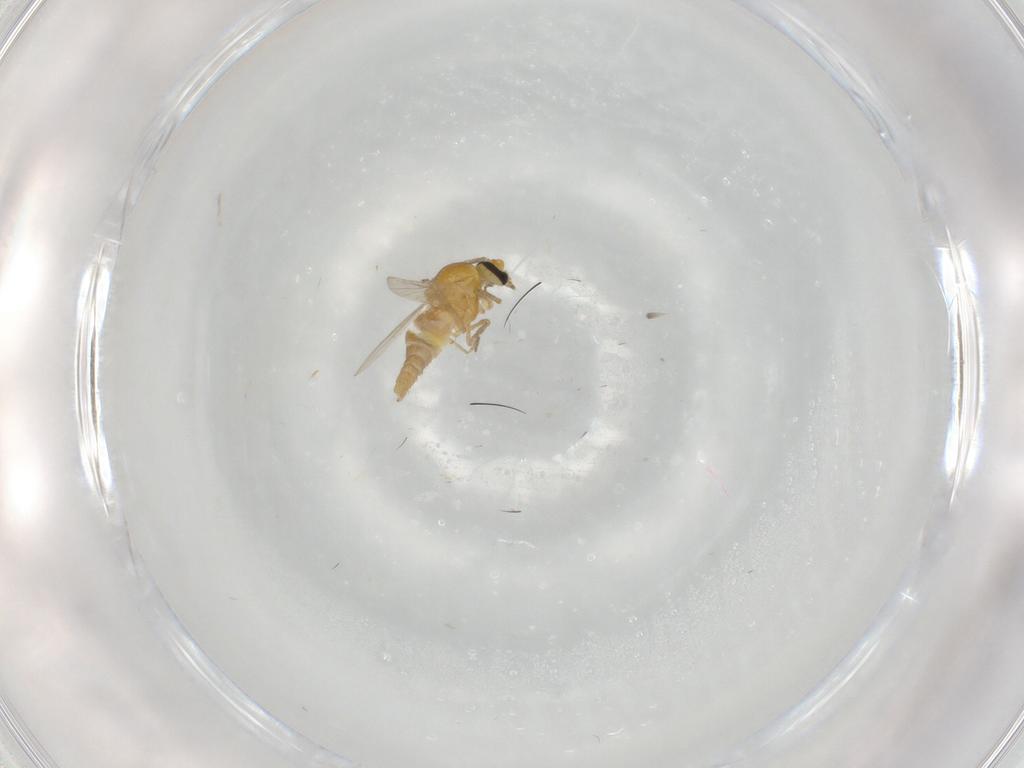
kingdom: Animalia
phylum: Arthropoda
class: Insecta
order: Diptera
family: Ceratopogonidae
